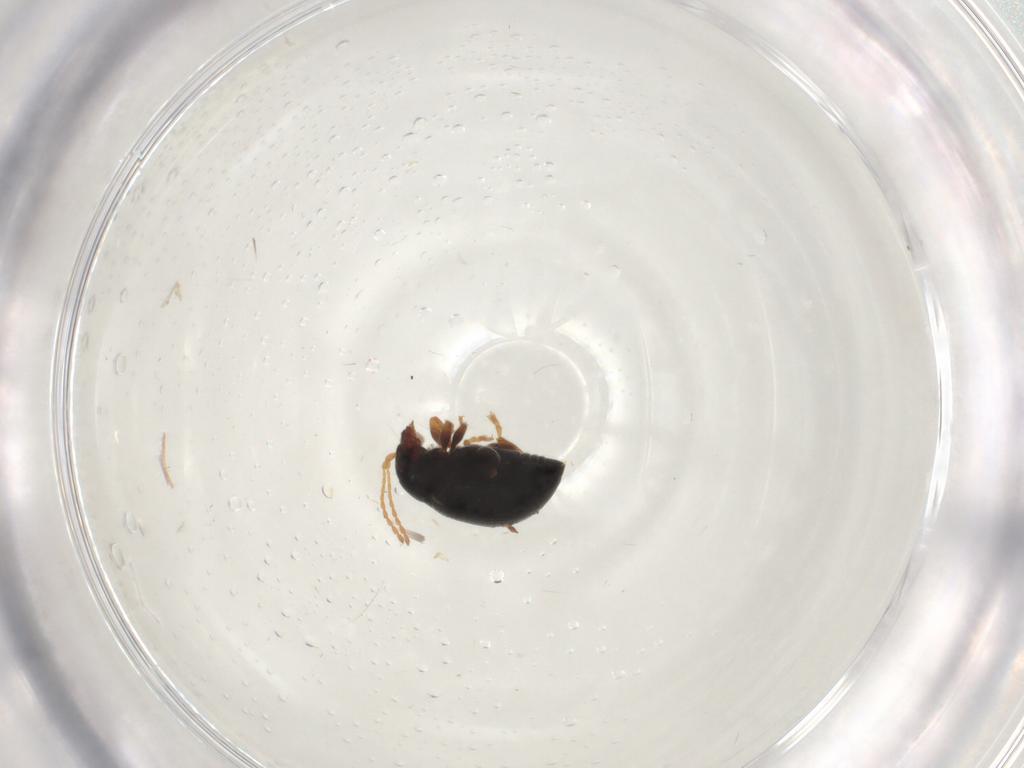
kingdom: Animalia
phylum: Arthropoda
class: Insecta
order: Coleoptera
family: Chrysomelidae
